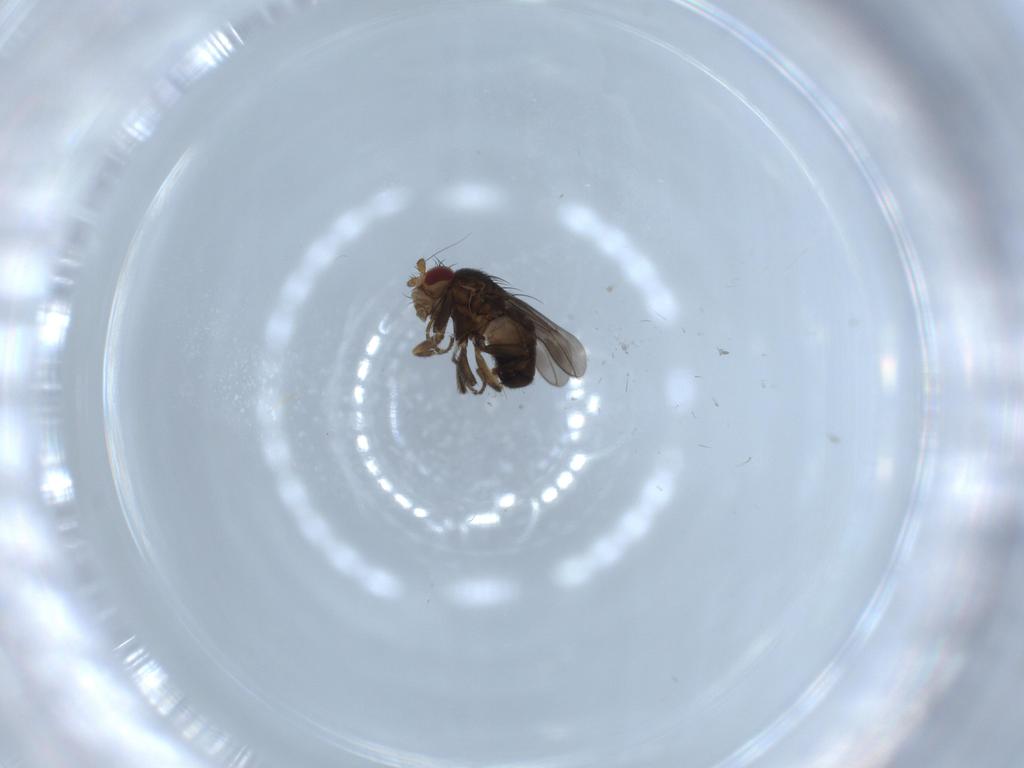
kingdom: Animalia
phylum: Arthropoda
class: Insecta
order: Diptera
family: Sphaeroceridae
